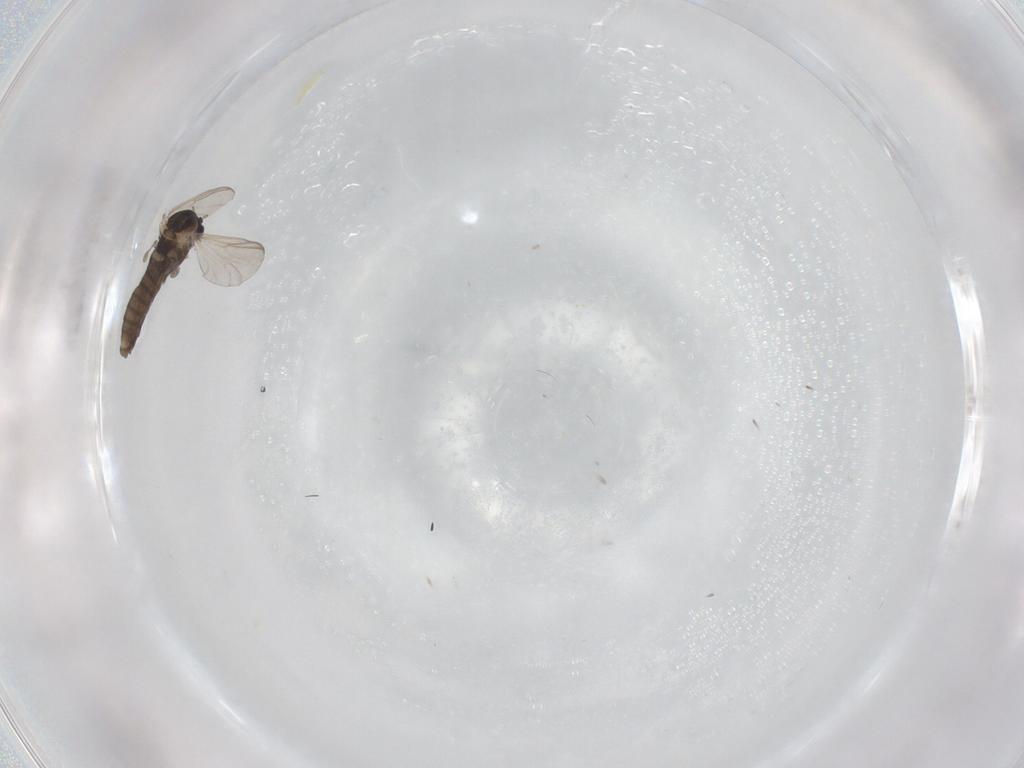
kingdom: Animalia
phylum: Arthropoda
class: Insecta
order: Diptera
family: Chironomidae
